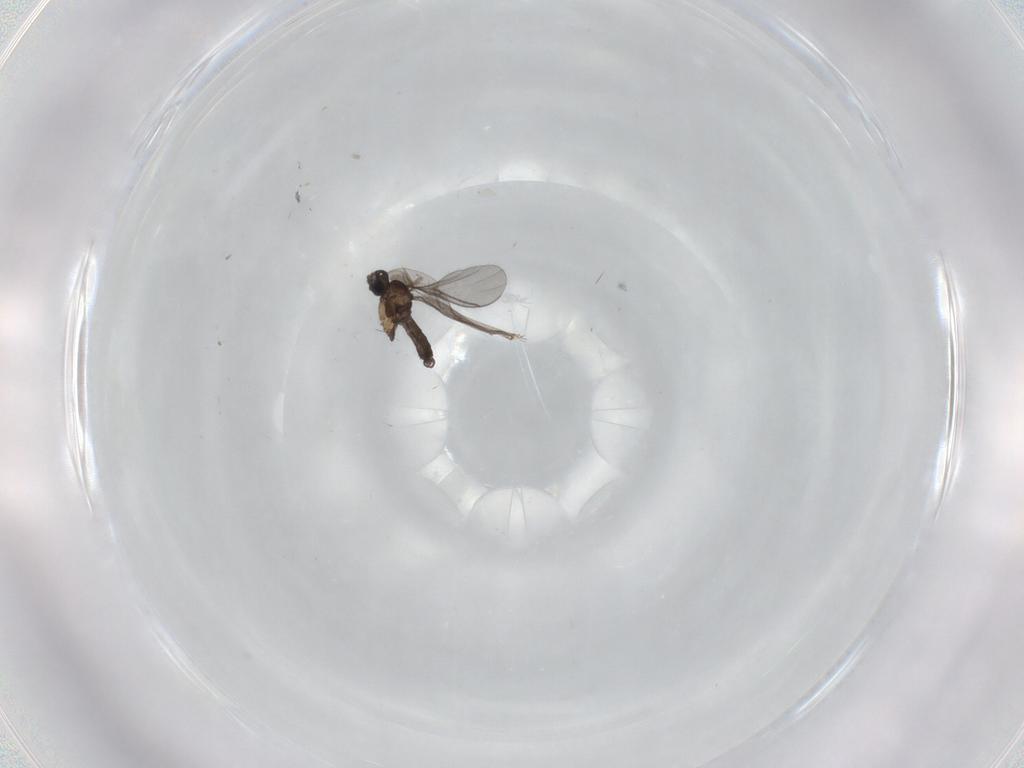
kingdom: Animalia
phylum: Arthropoda
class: Insecta
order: Diptera
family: Sciaridae
